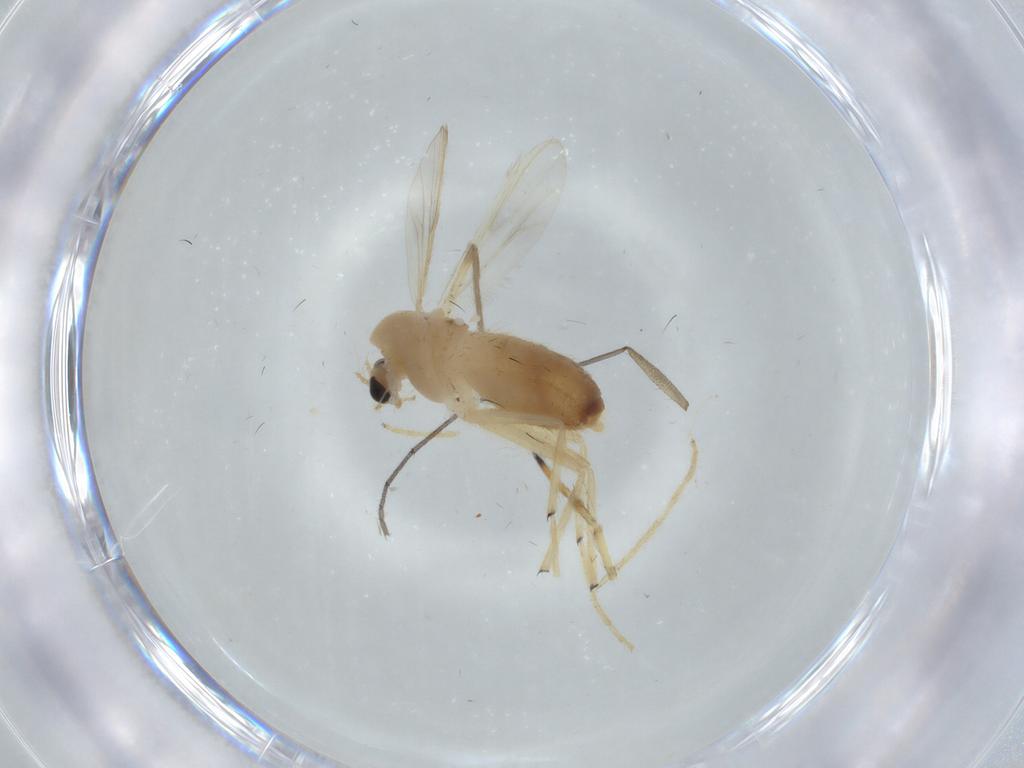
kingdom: Animalia
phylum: Arthropoda
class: Insecta
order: Diptera
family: Chironomidae
